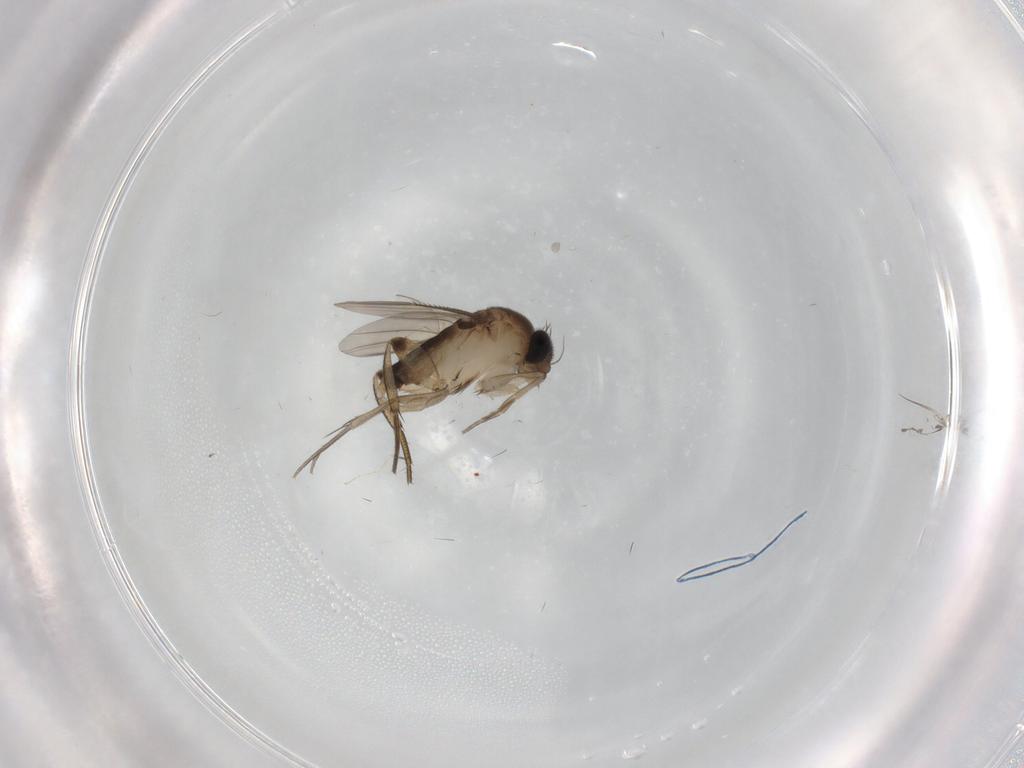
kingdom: Animalia
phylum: Arthropoda
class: Insecta
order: Diptera
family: Phoridae
